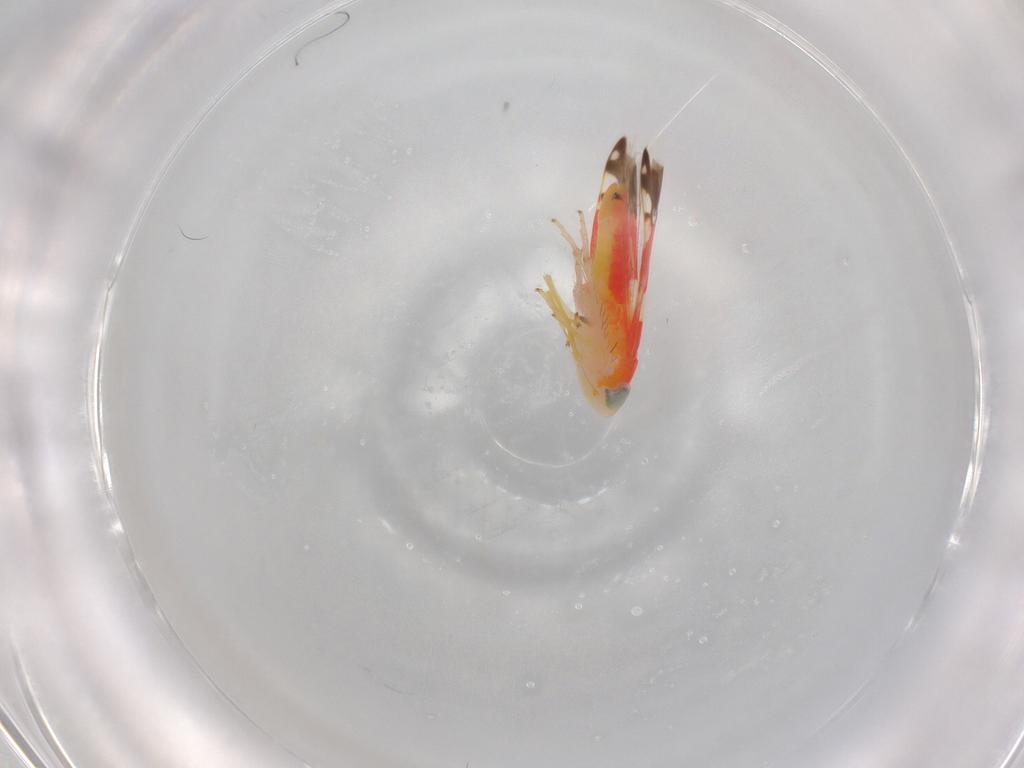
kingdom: Animalia
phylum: Arthropoda
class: Insecta
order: Hemiptera
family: Cicadellidae
